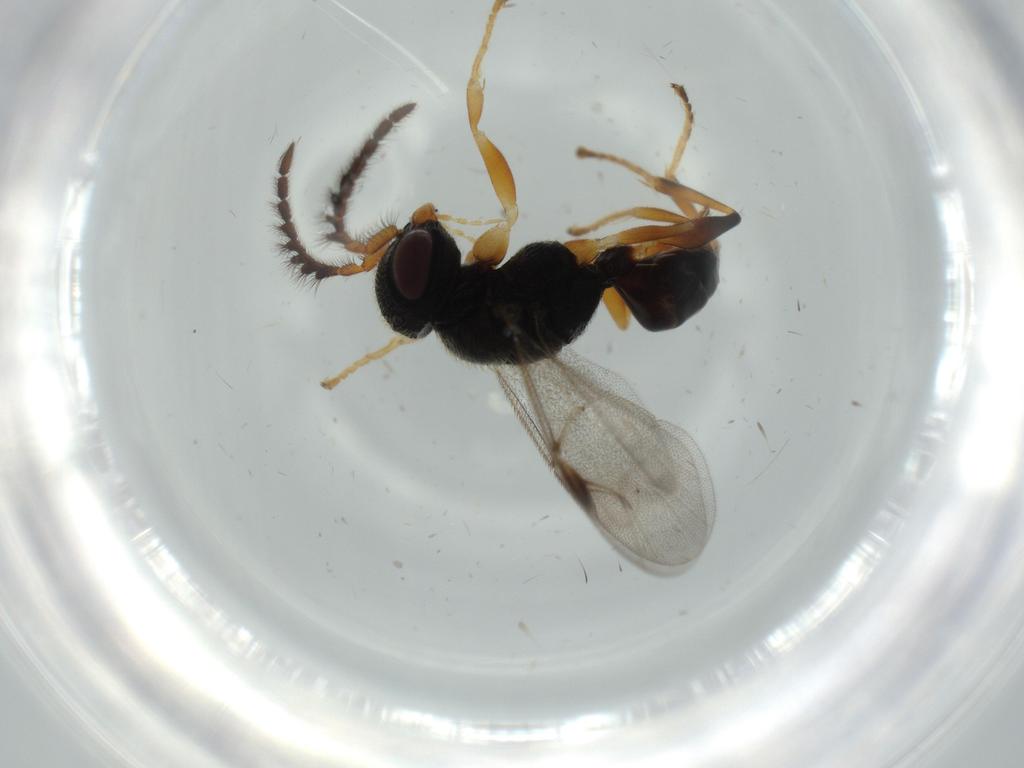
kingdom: Animalia
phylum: Arthropoda
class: Insecta
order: Hymenoptera
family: Dryinidae
